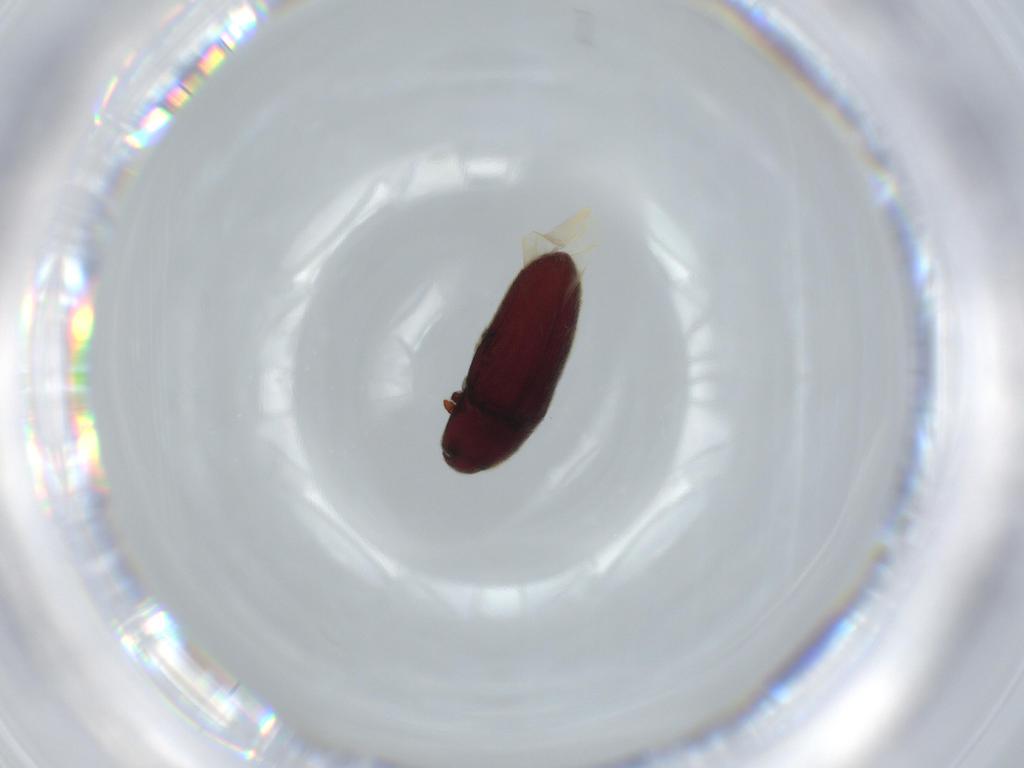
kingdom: Animalia
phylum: Arthropoda
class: Insecta
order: Coleoptera
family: Throscidae
